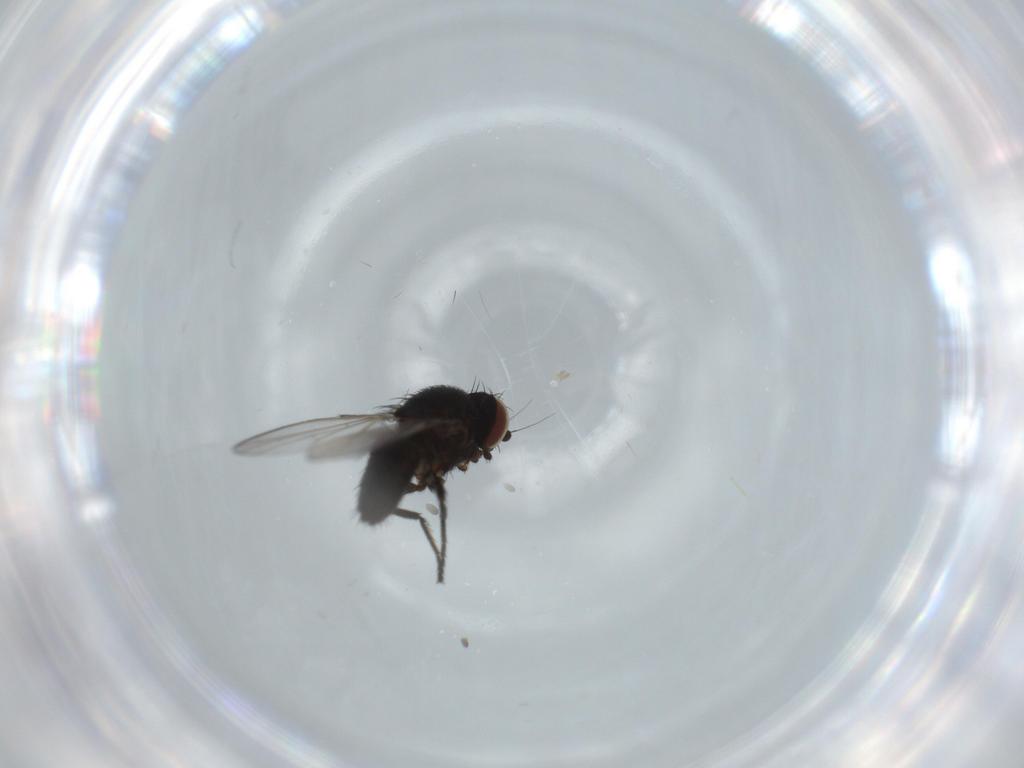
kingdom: Animalia
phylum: Arthropoda
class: Insecta
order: Diptera
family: Milichiidae
